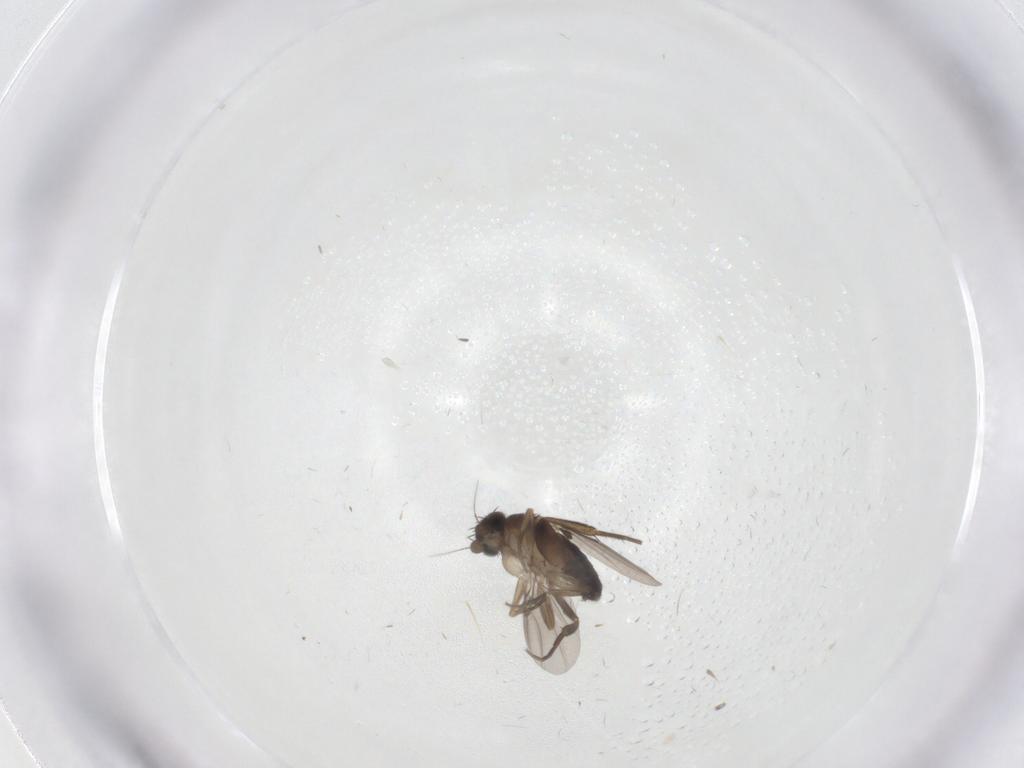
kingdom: Animalia
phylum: Arthropoda
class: Insecta
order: Diptera
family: Phoridae
